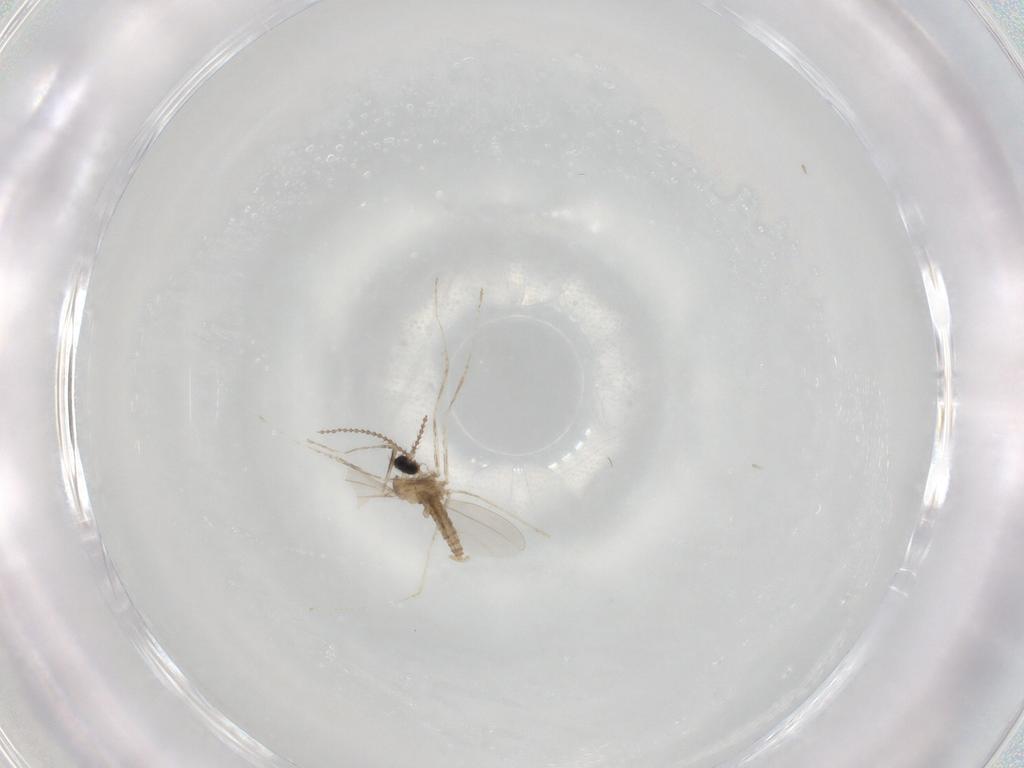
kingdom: Animalia
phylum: Arthropoda
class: Insecta
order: Diptera
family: Cecidomyiidae
